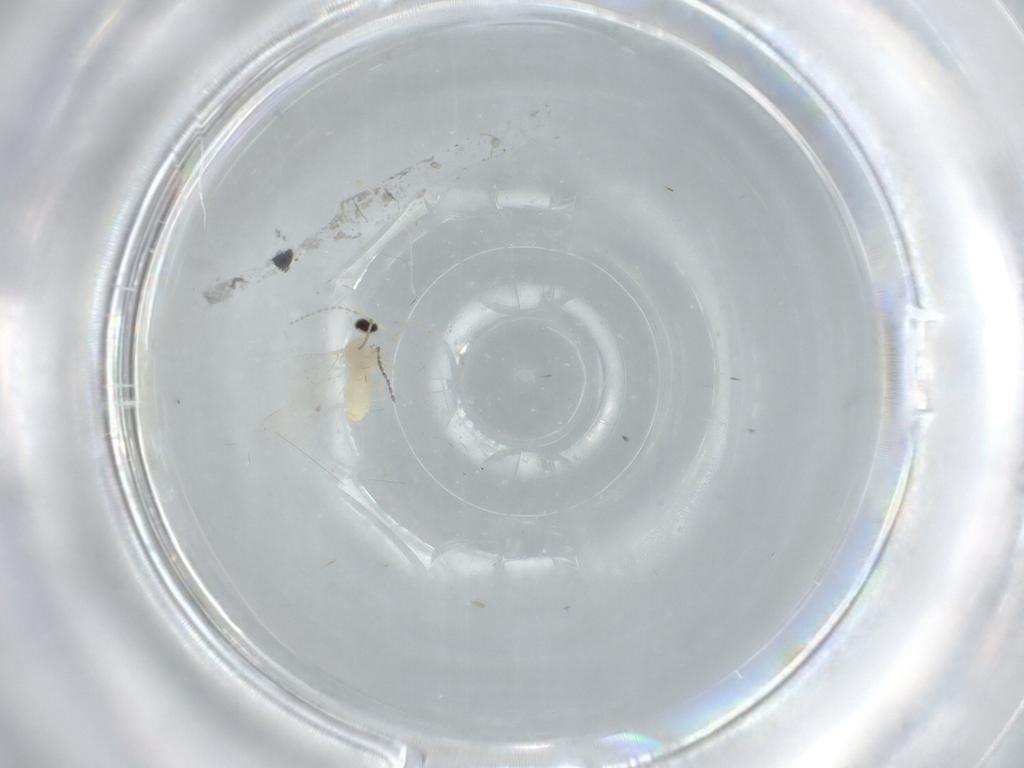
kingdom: Animalia
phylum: Arthropoda
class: Insecta
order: Diptera
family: Cecidomyiidae
